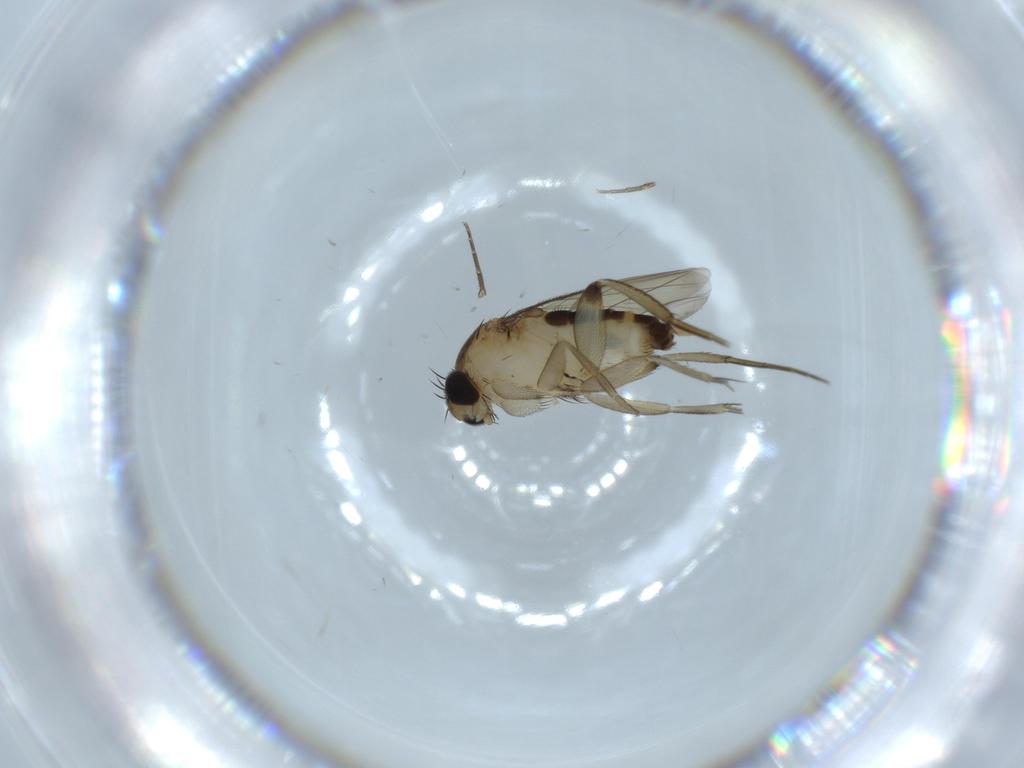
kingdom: Animalia
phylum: Arthropoda
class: Insecta
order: Diptera
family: Phoridae
